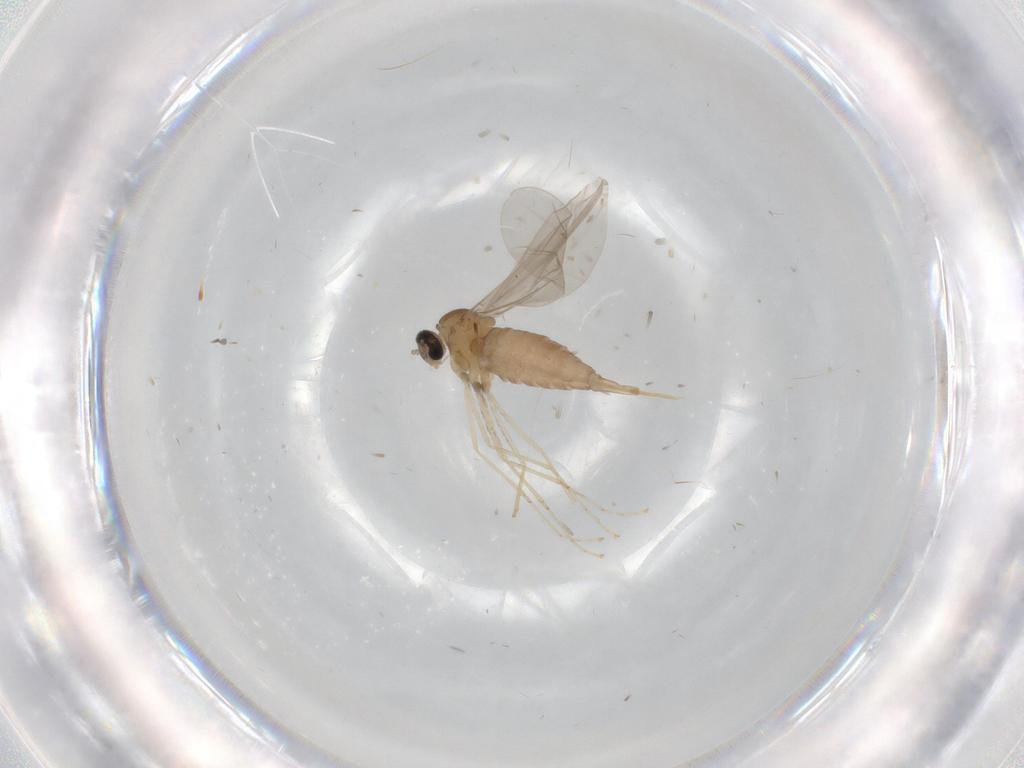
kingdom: Animalia
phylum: Arthropoda
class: Insecta
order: Diptera
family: Cecidomyiidae
